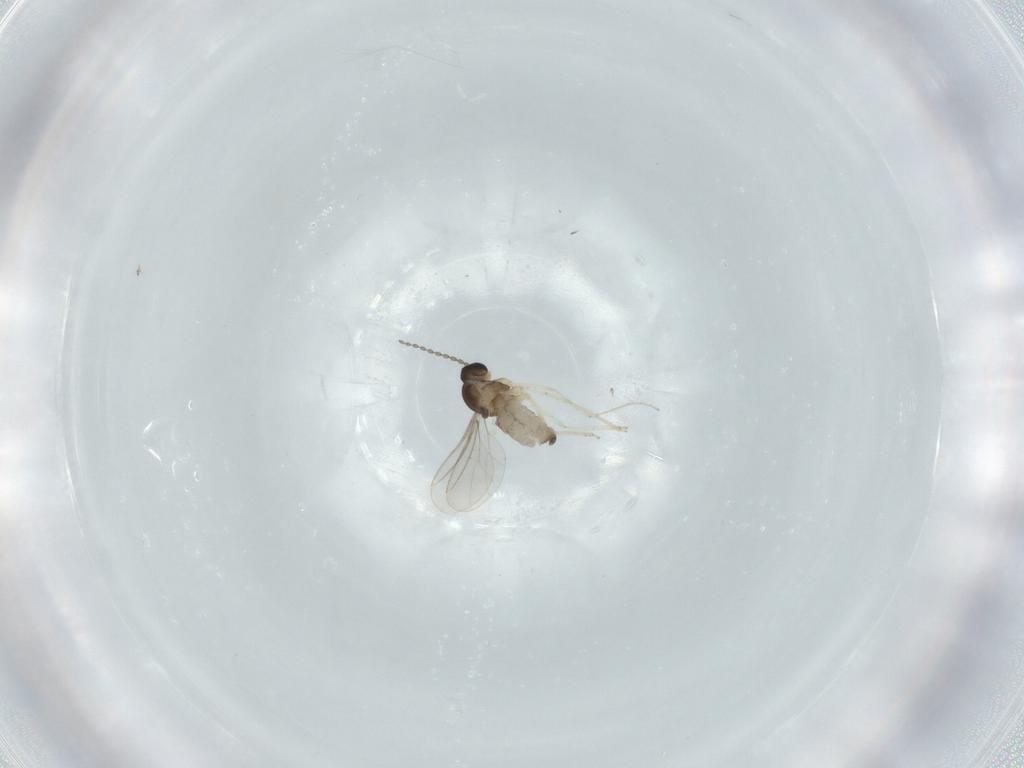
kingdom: Animalia
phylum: Arthropoda
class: Insecta
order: Diptera
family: Cecidomyiidae
